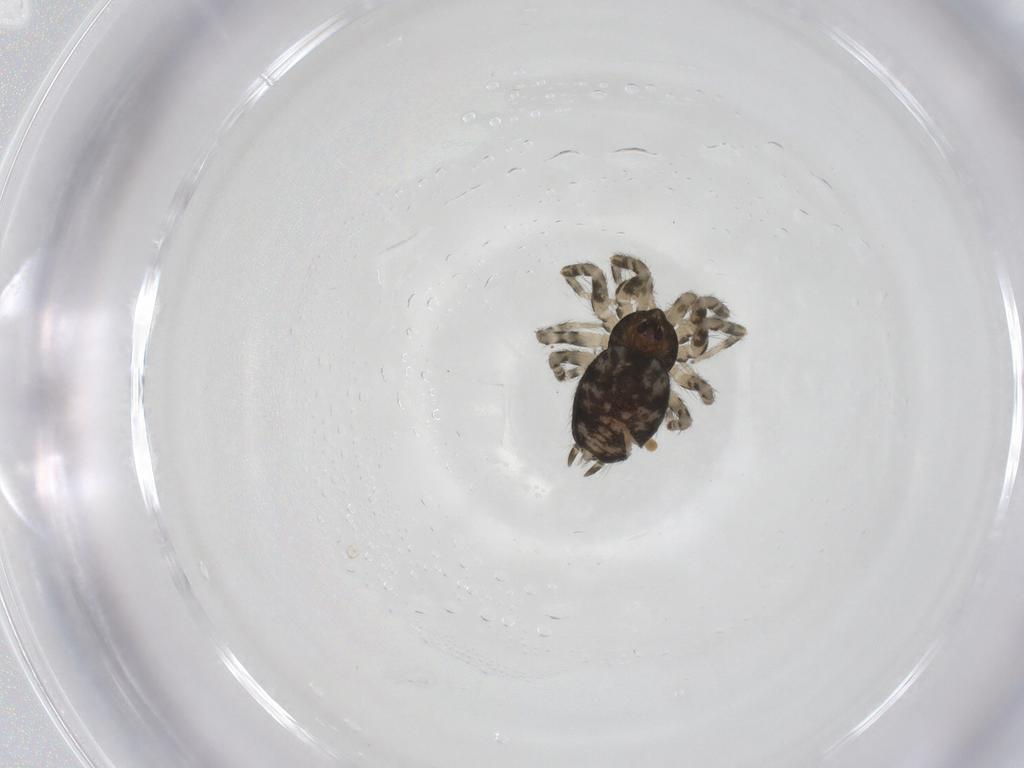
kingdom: Animalia
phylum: Arthropoda
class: Arachnida
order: Araneae
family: Oecobiidae
